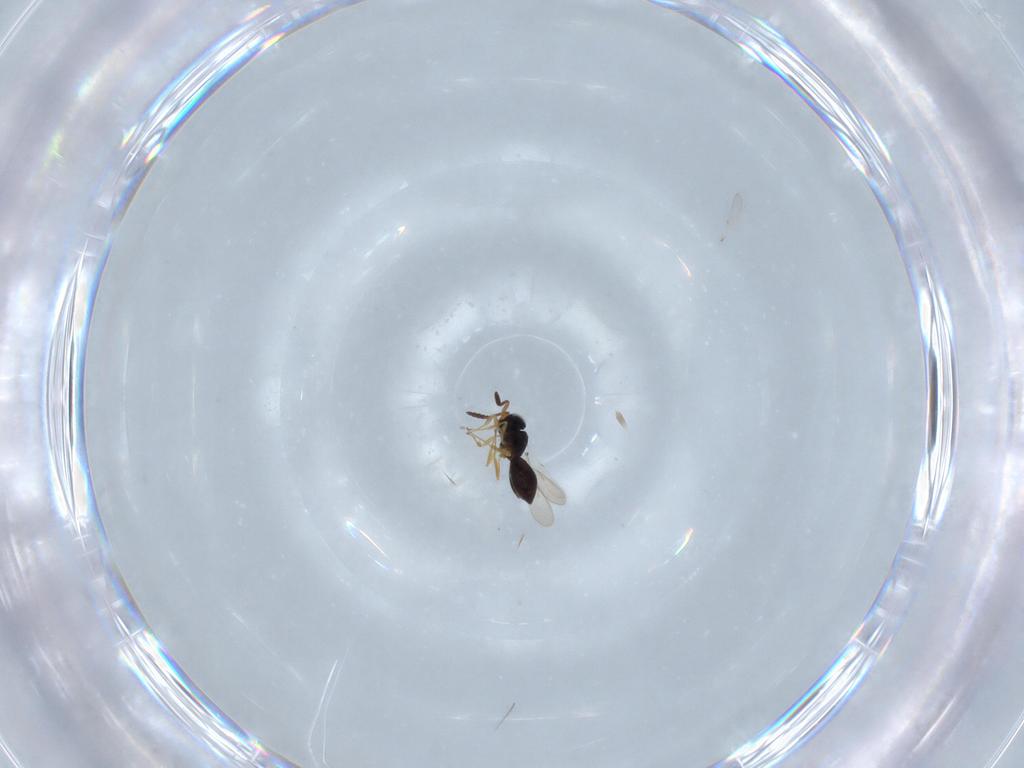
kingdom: Animalia
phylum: Arthropoda
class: Insecta
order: Hymenoptera
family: Scelionidae
